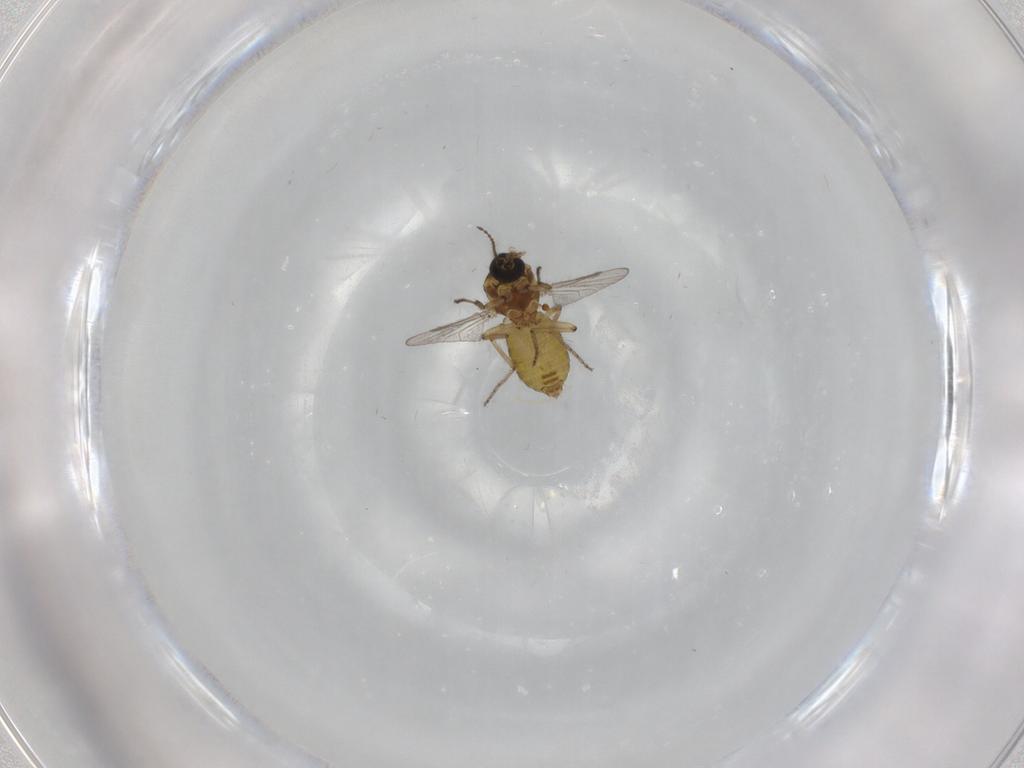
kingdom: Animalia
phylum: Arthropoda
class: Insecta
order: Diptera
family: Ceratopogonidae
